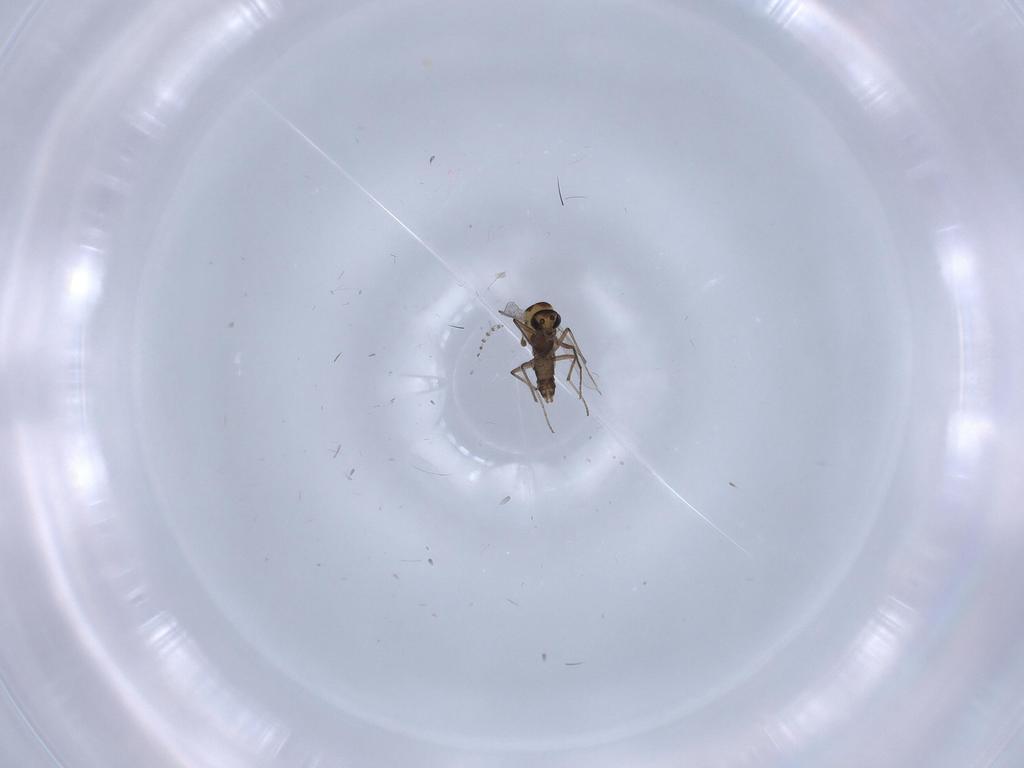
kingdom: Animalia
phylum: Arthropoda
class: Insecta
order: Diptera
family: Chironomidae
